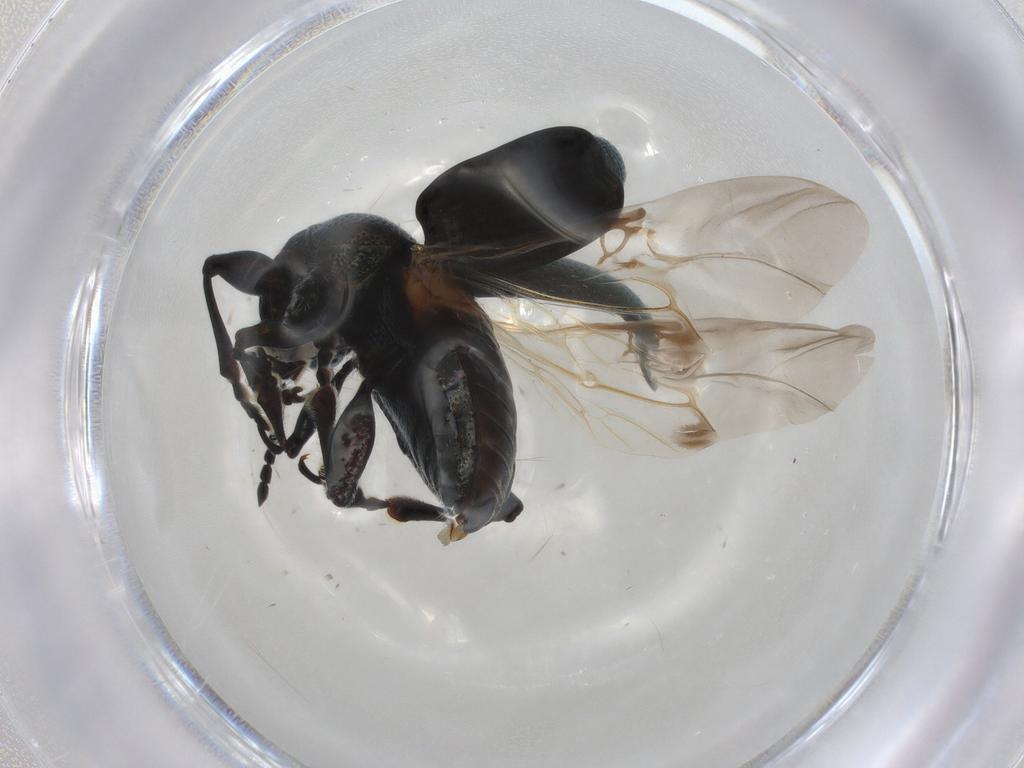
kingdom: Animalia
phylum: Arthropoda
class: Insecta
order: Coleoptera
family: Chrysomelidae
